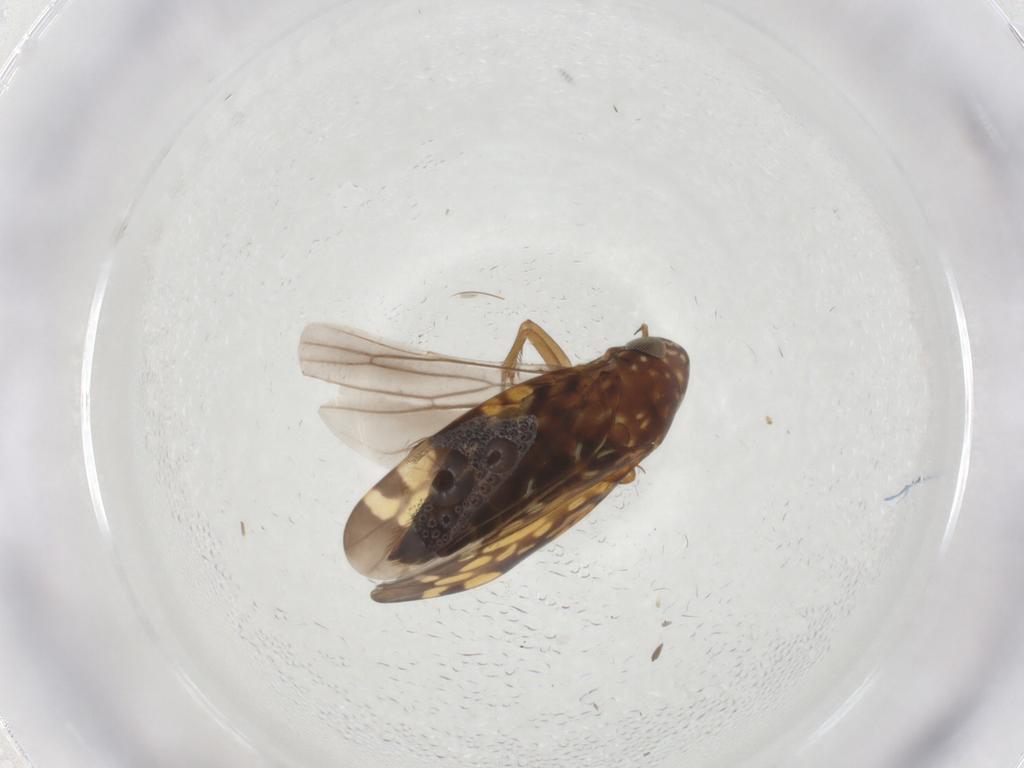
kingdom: Animalia
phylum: Arthropoda
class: Insecta
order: Hemiptera
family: Cicadellidae
